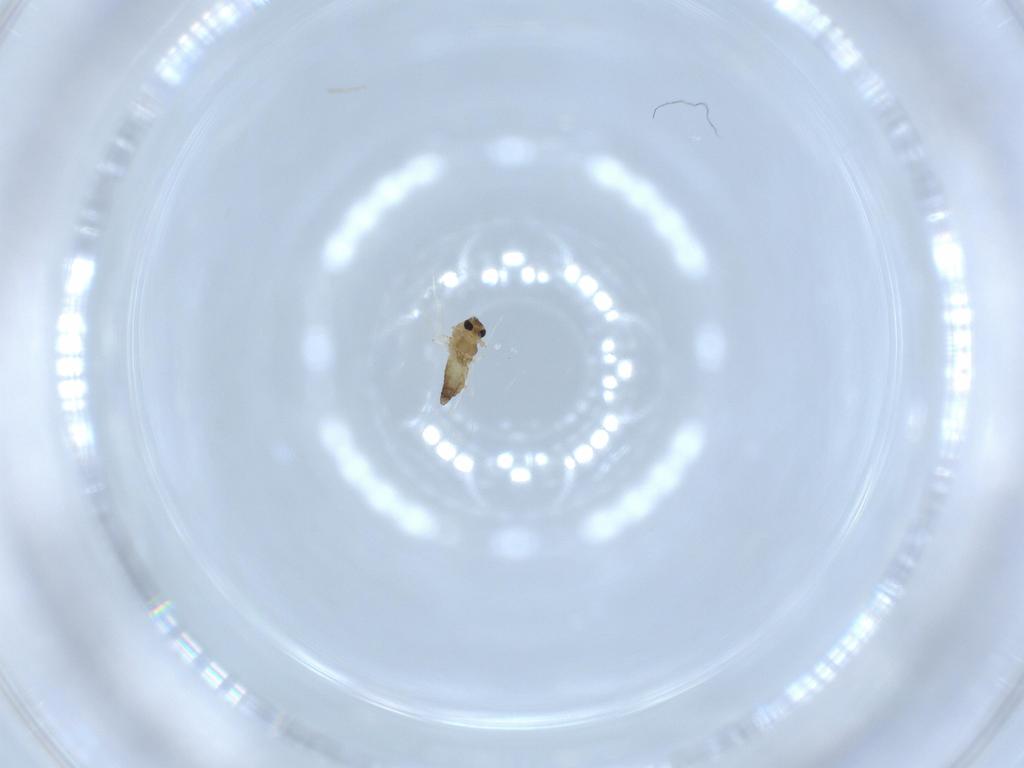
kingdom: Animalia
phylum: Arthropoda
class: Insecta
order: Diptera
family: Chironomidae
